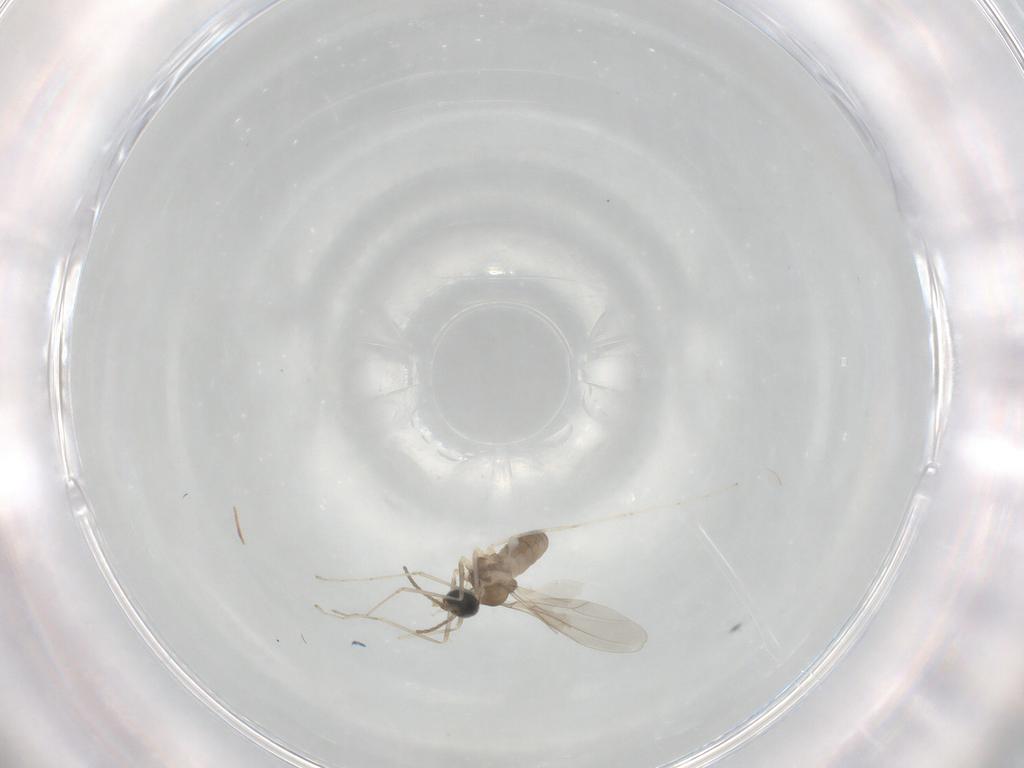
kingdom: Animalia
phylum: Arthropoda
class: Insecta
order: Diptera
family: Cecidomyiidae
